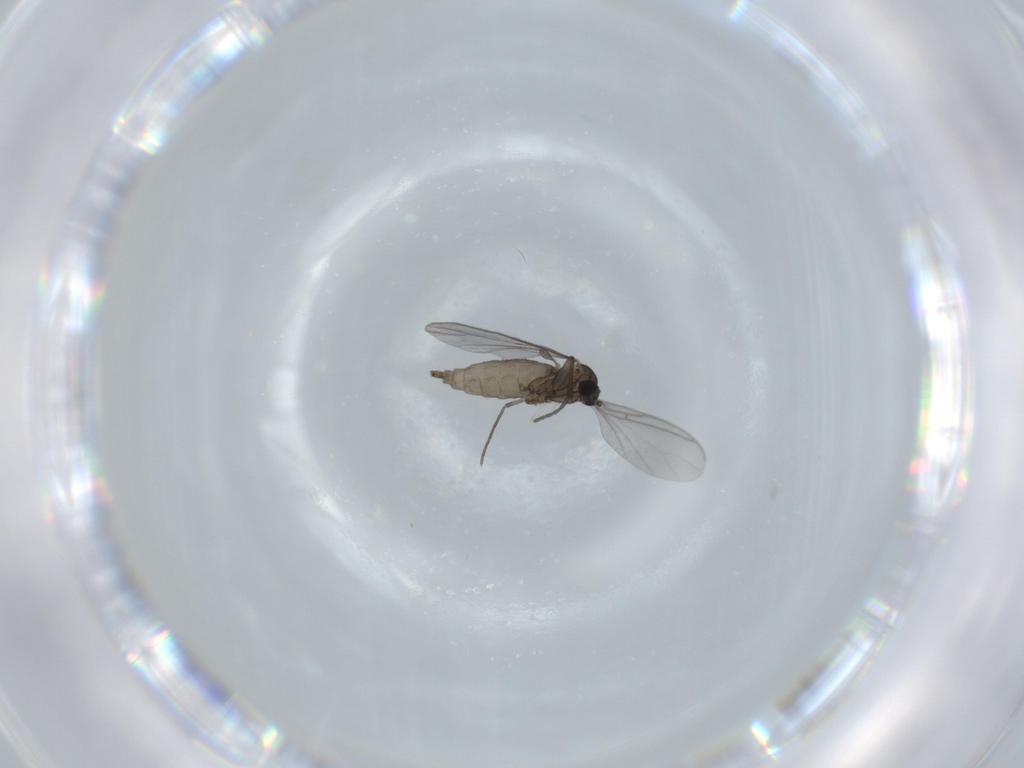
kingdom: Animalia
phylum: Arthropoda
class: Insecta
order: Diptera
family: Sciaridae
